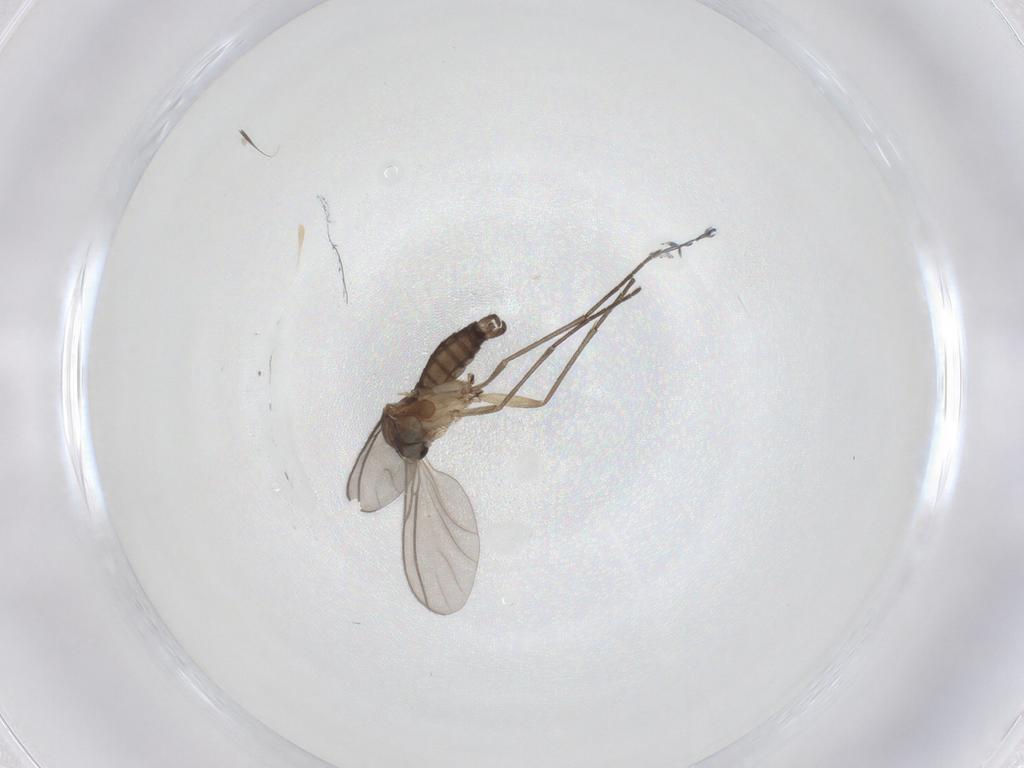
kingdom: Animalia
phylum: Arthropoda
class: Insecta
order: Diptera
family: Sciaridae
